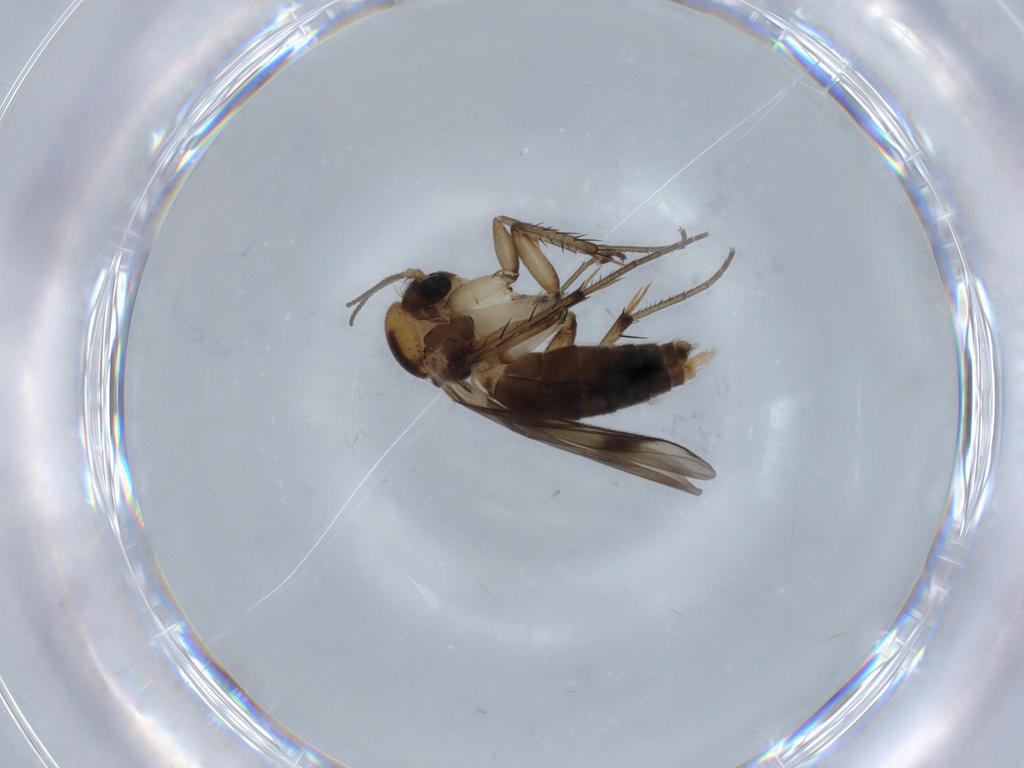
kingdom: Animalia
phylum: Arthropoda
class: Insecta
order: Diptera
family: Mycetophilidae
